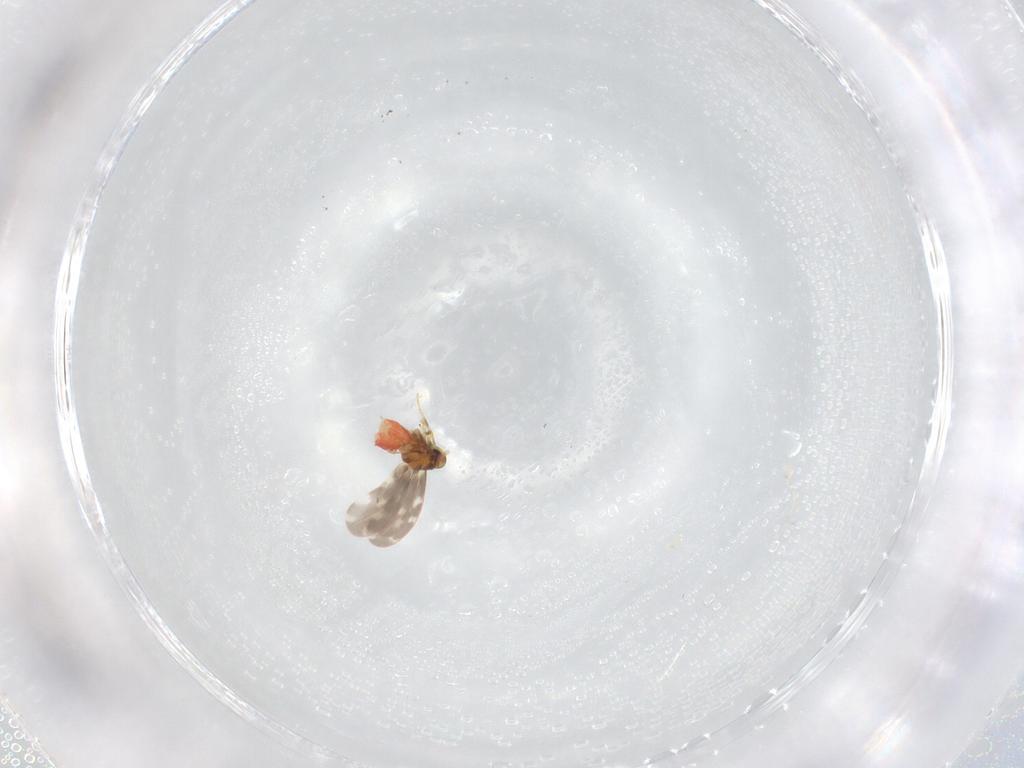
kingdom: Animalia
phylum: Arthropoda
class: Insecta
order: Hemiptera
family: Aleyrodidae
